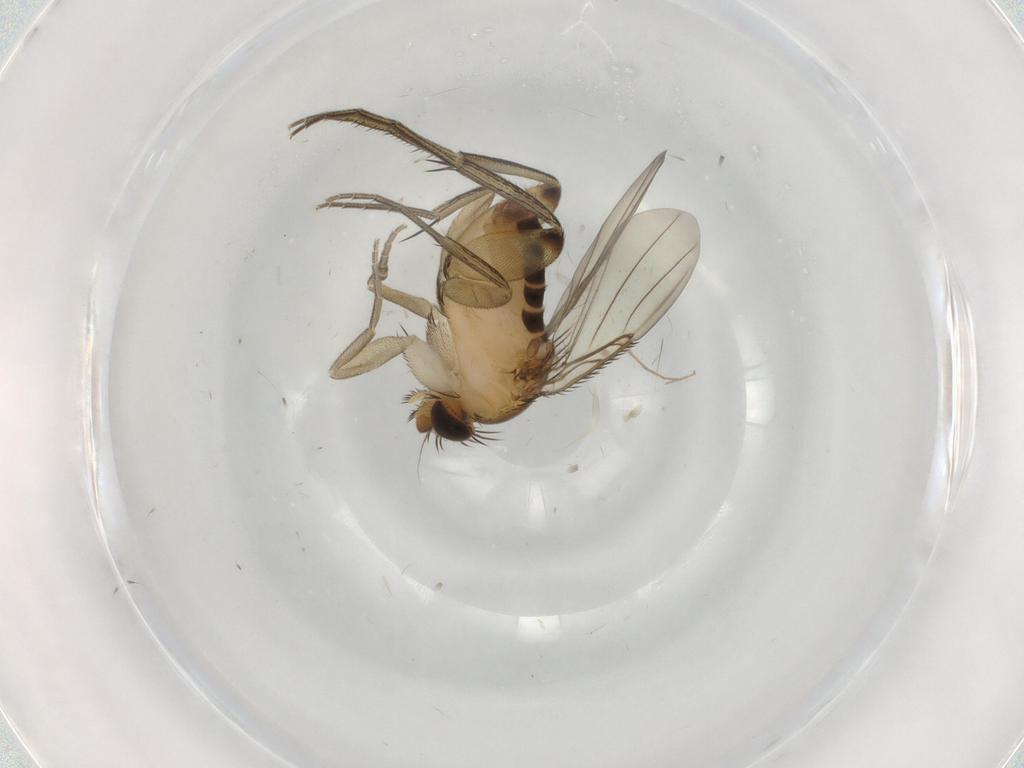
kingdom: Animalia
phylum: Arthropoda
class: Insecta
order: Diptera
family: Phoridae
